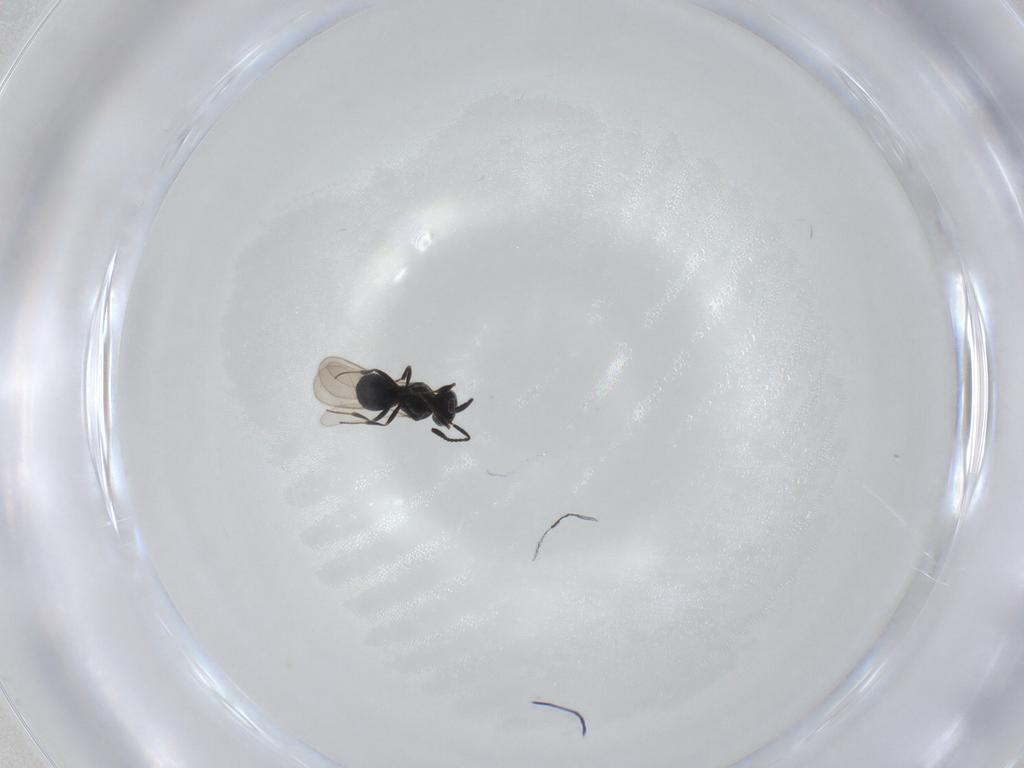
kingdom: Animalia
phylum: Arthropoda
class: Insecta
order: Hymenoptera
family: Scelionidae
